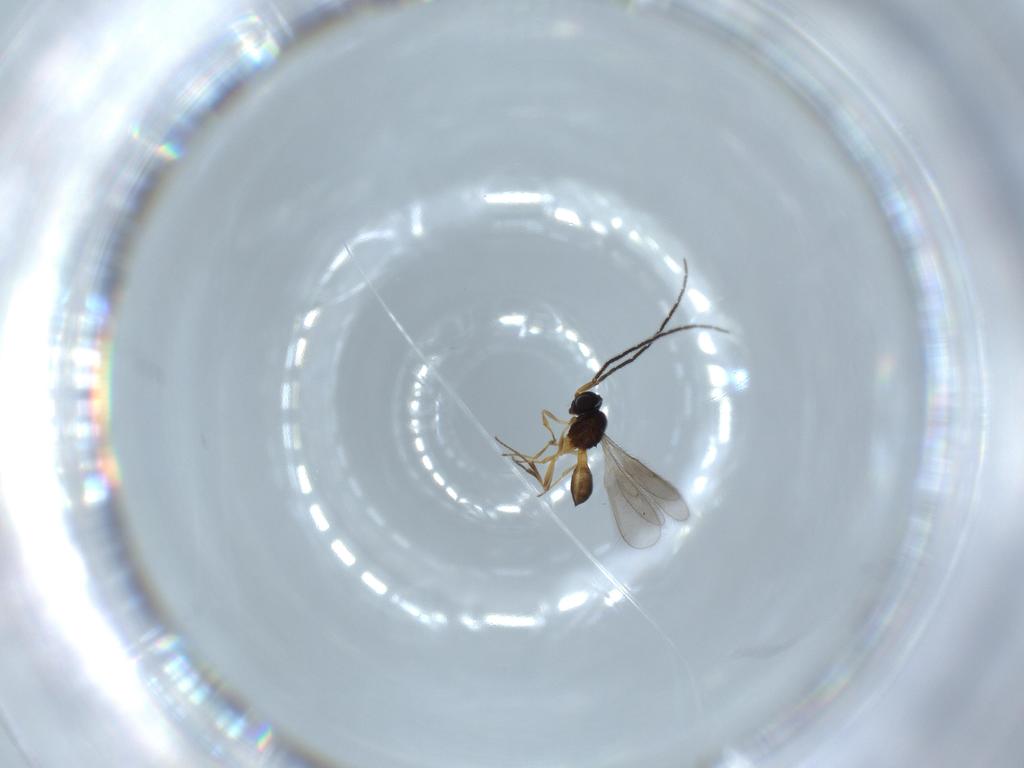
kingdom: Animalia
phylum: Arthropoda
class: Insecta
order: Hymenoptera
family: Scelionidae
